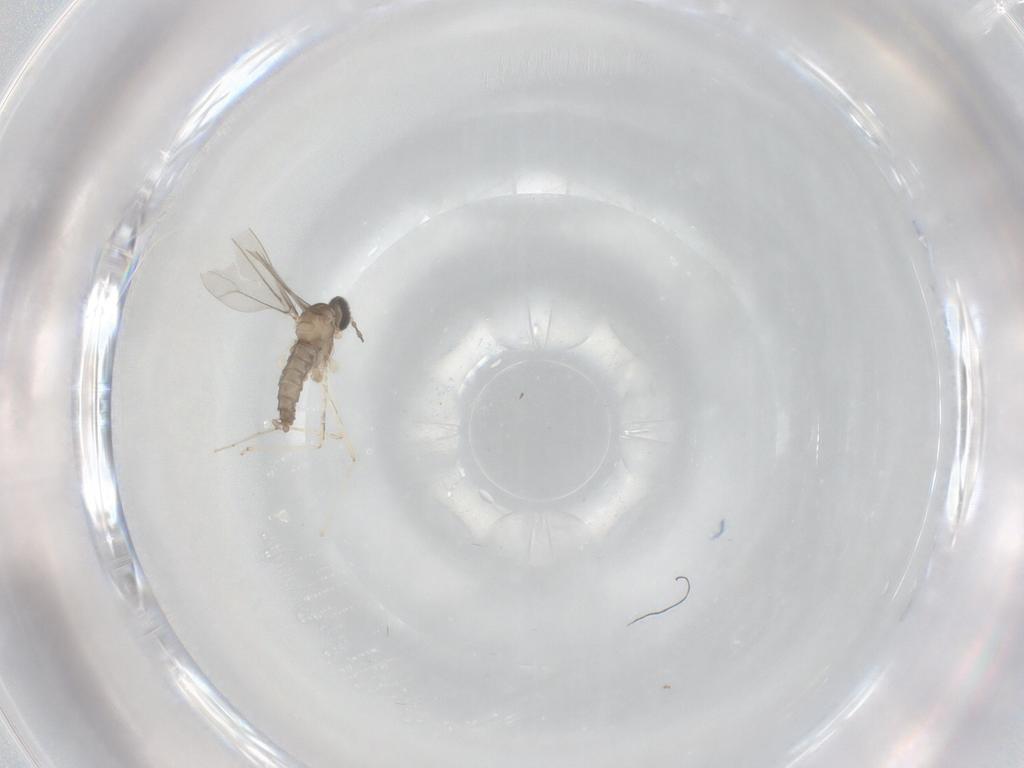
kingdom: Animalia
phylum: Arthropoda
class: Insecta
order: Diptera
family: Cecidomyiidae
